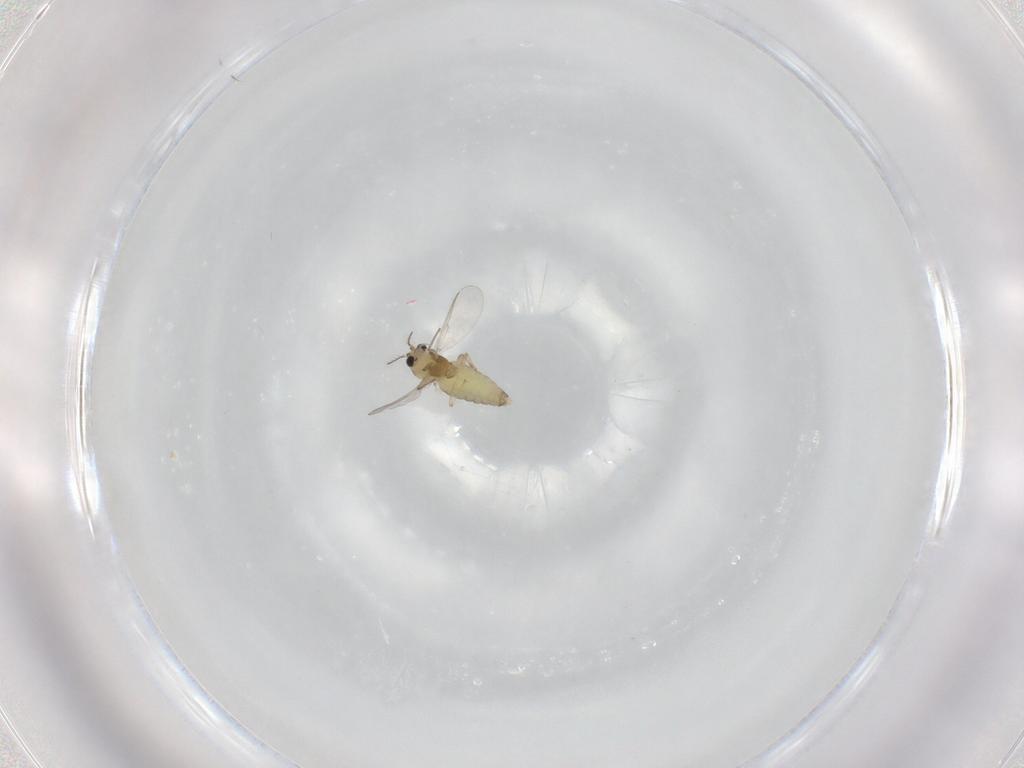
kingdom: Animalia
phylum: Arthropoda
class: Insecta
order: Diptera
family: Chironomidae
